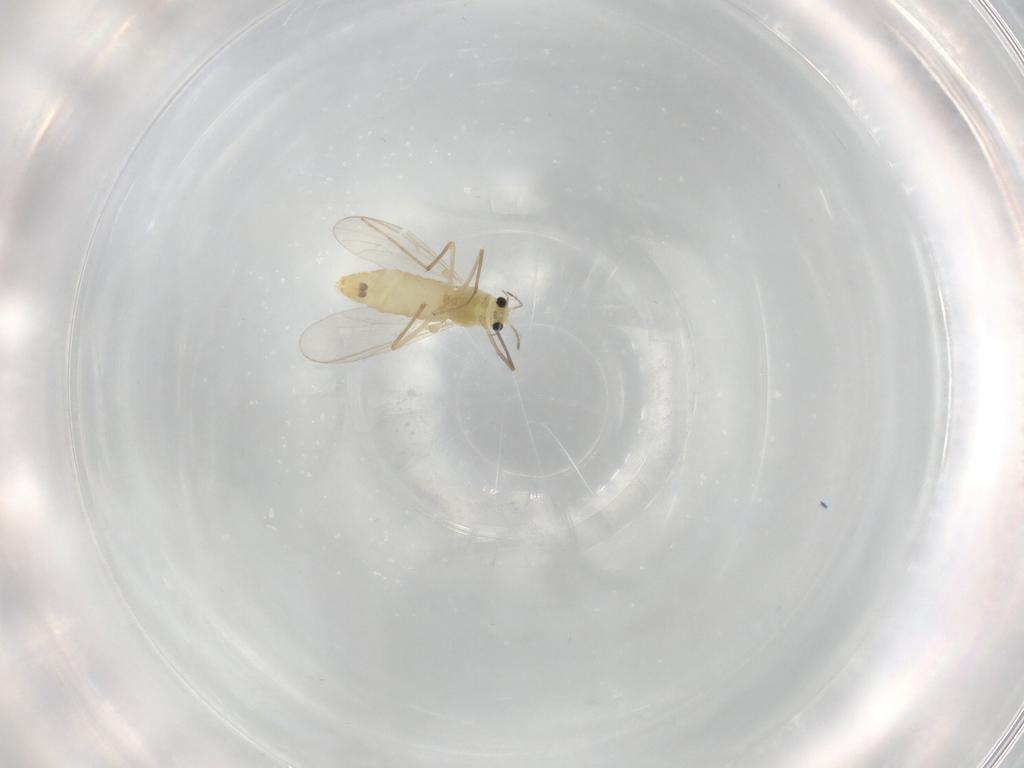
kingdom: Animalia
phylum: Arthropoda
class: Insecta
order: Diptera
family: Chironomidae
